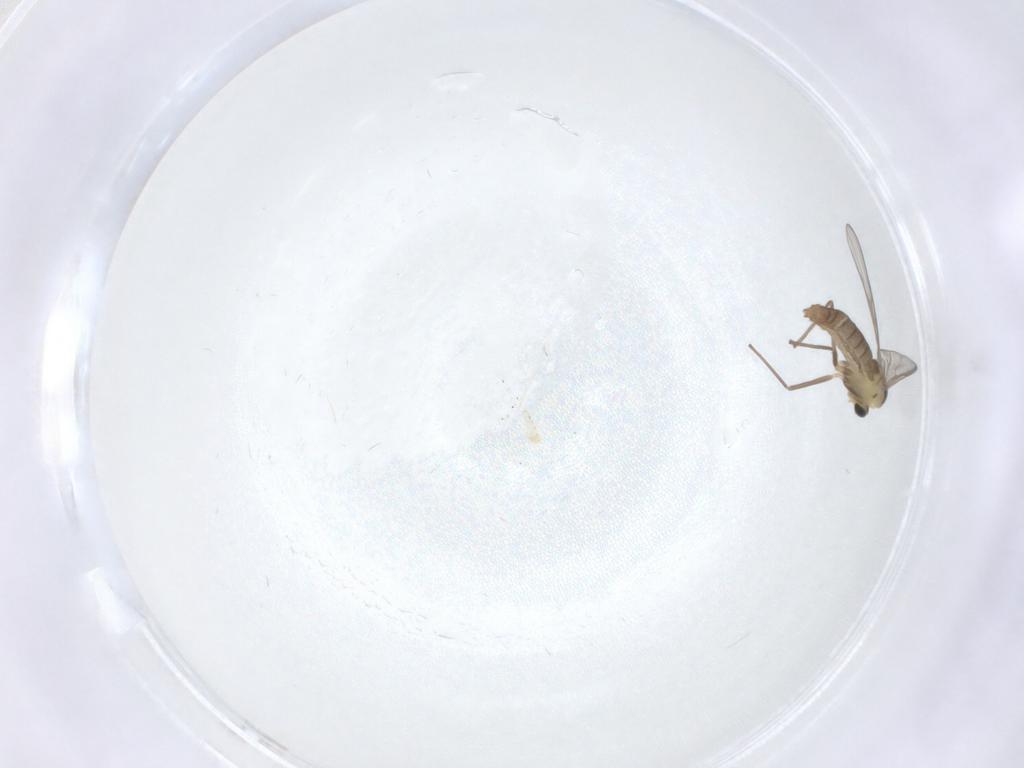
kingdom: Animalia
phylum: Arthropoda
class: Insecta
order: Diptera
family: Chironomidae
